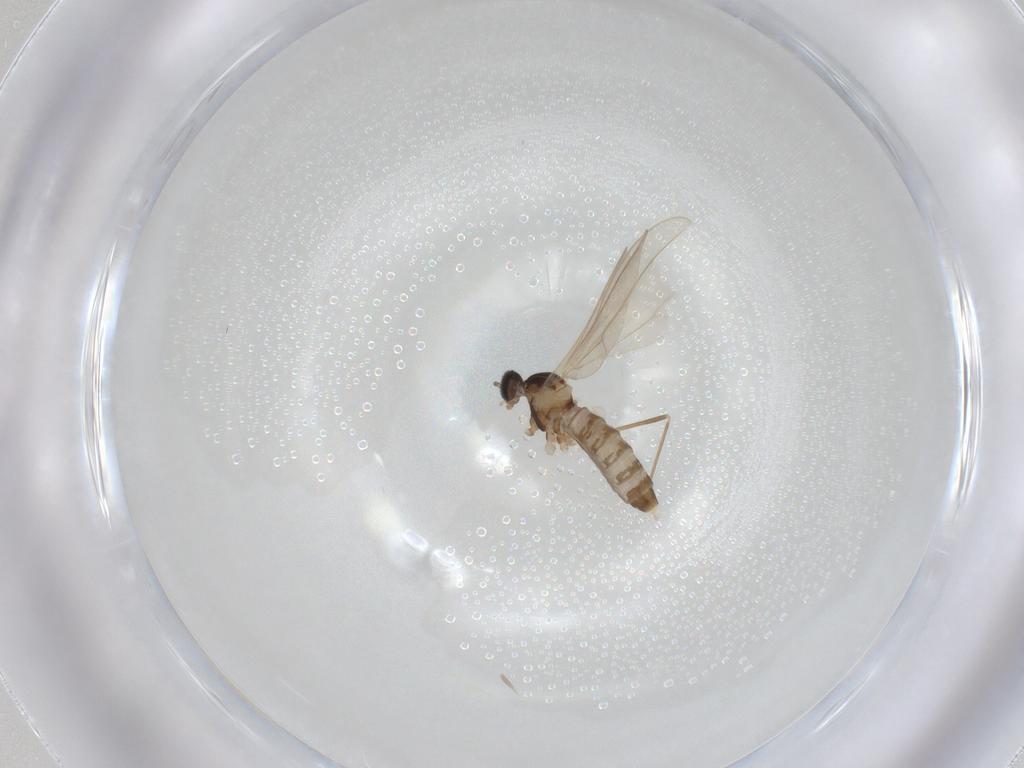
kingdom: Animalia
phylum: Arthropoda
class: Insecta
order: Diptera
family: Cecidomyiidae
